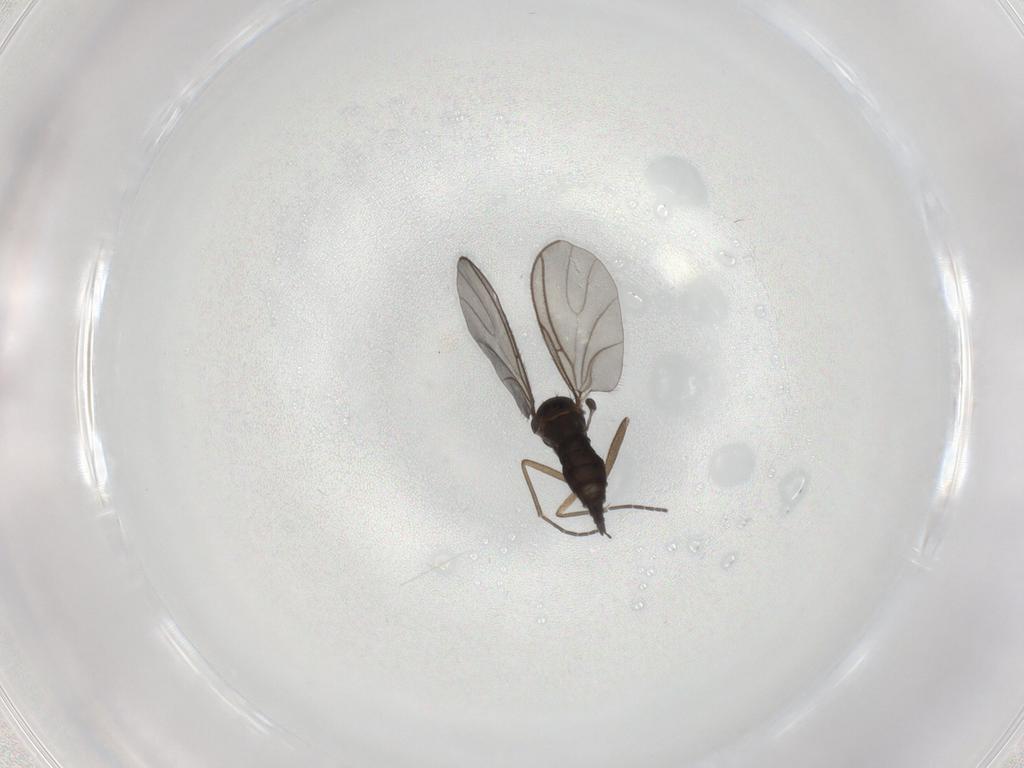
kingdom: Animalia
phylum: Arthropoda
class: Insecta
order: Diptera
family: Sciaridae
